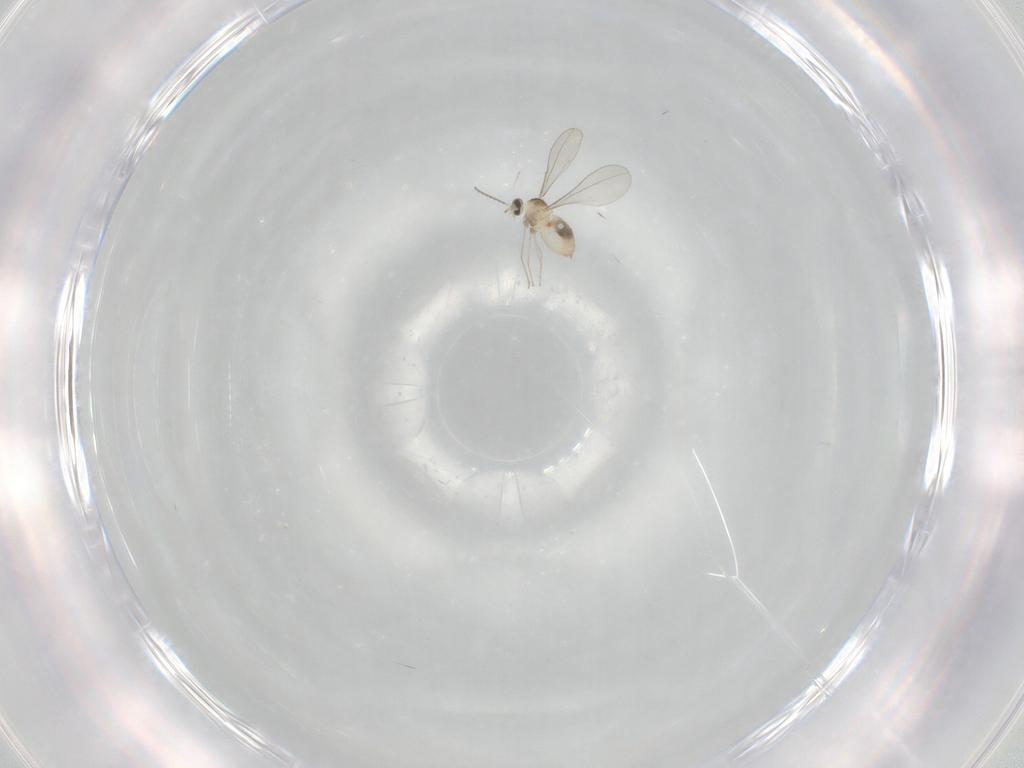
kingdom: Animalia
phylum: Arthropoda
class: Insecta
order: Diptera
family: Cecidomyiidae
